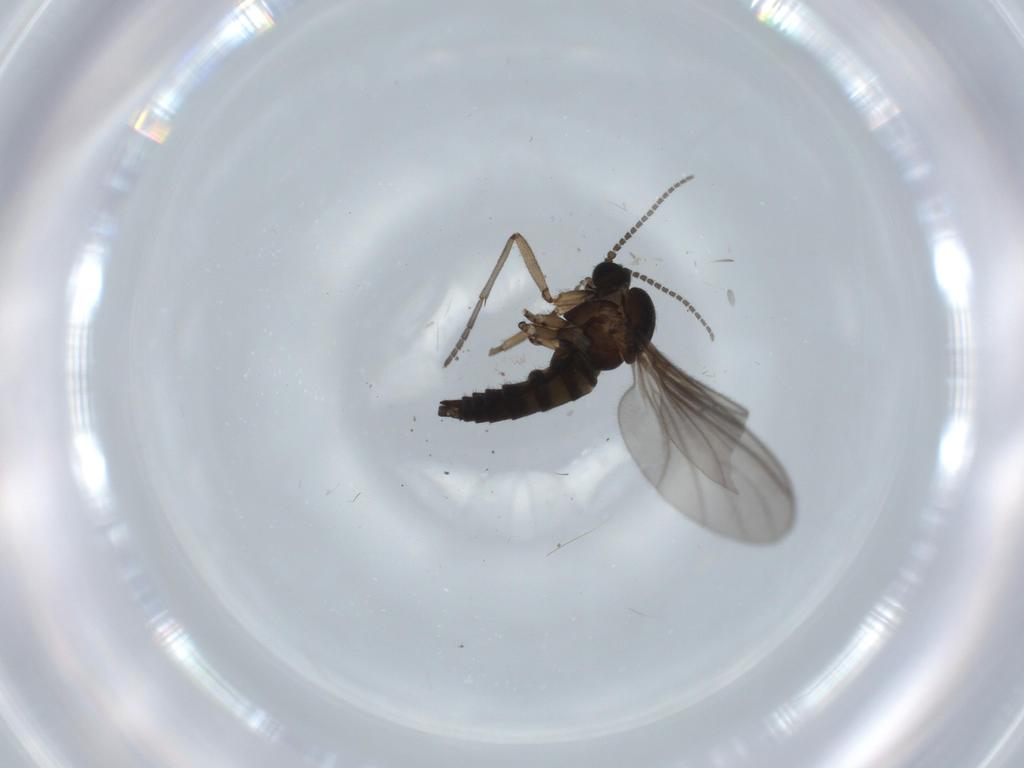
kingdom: Animalia
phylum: Arthropoda
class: Insecta
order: Diptera
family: Sciaridae
